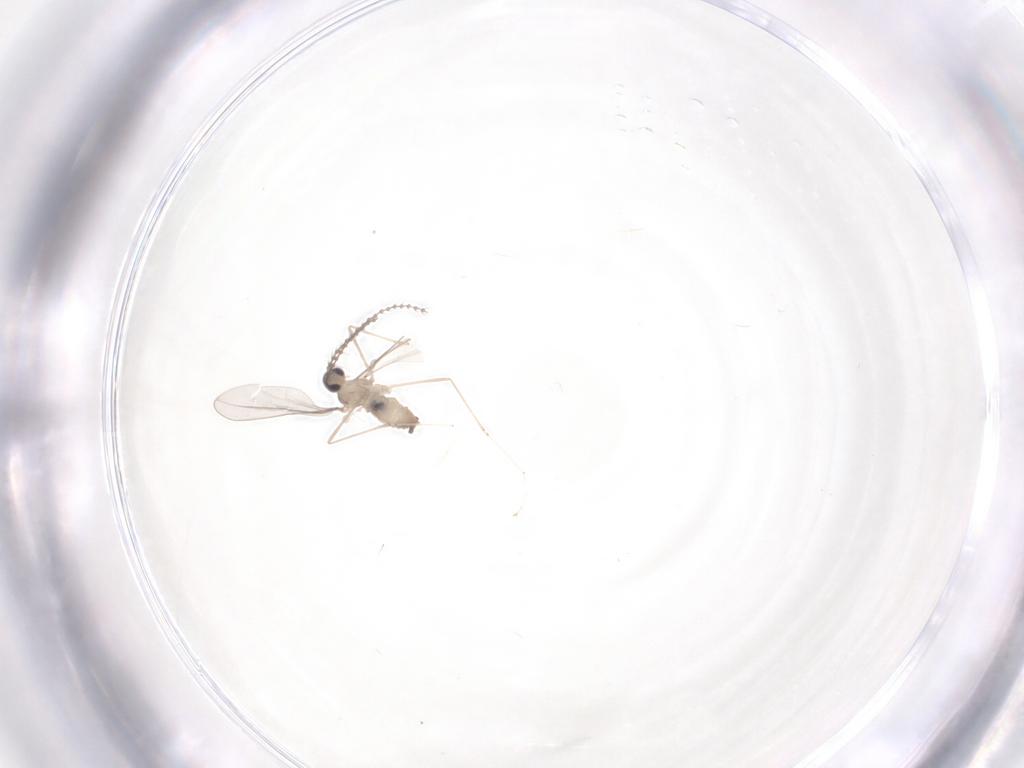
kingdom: Animalia
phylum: Arthropoda
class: Insecta
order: Diptera
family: Cecidomyiidae
